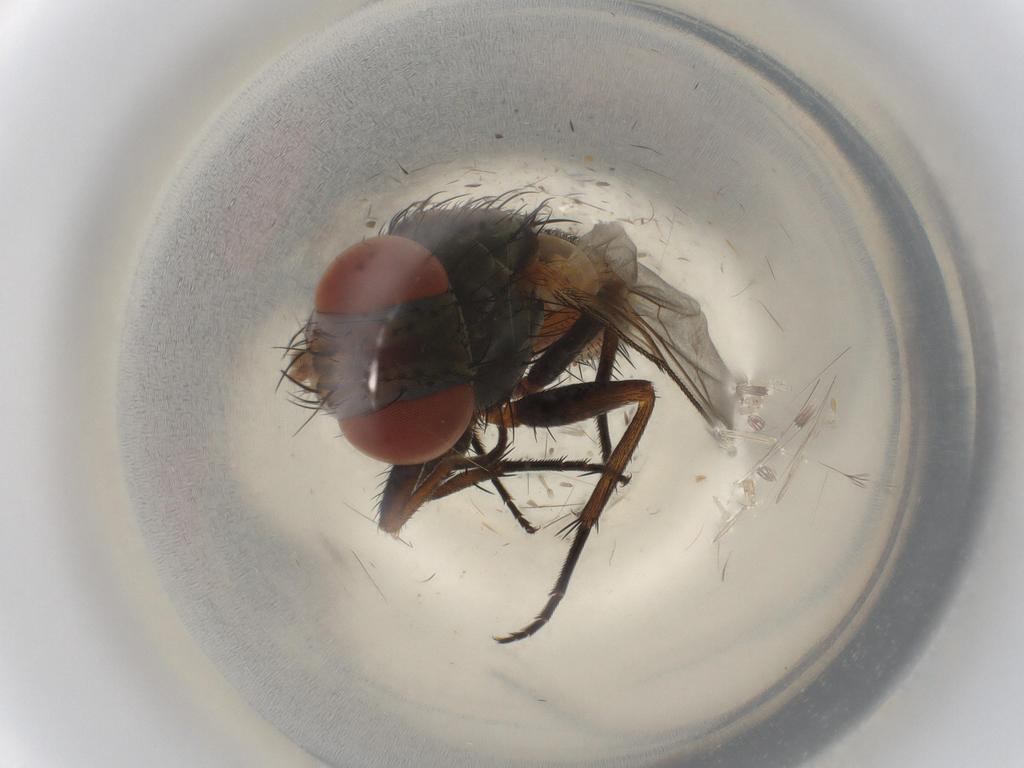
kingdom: Animalia
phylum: Arthropoda
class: Insecta
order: Diptera
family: Sarcophagidae
